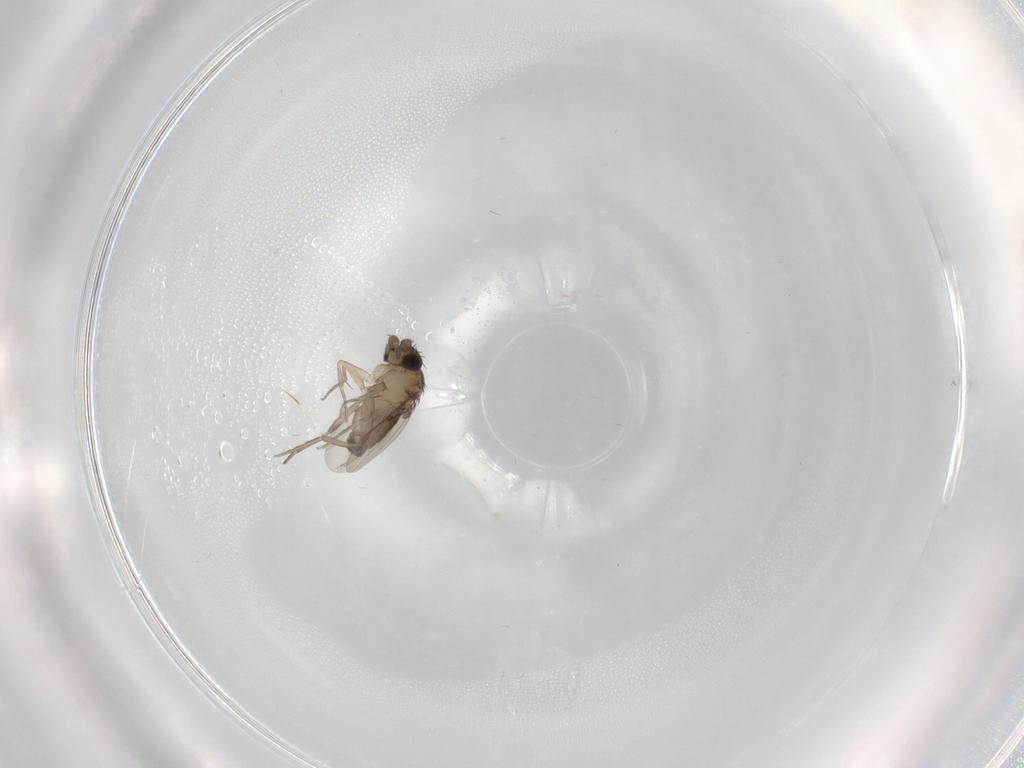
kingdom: Animalia
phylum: Arthropoda
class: Insecta
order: Diptera
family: Phoridae
